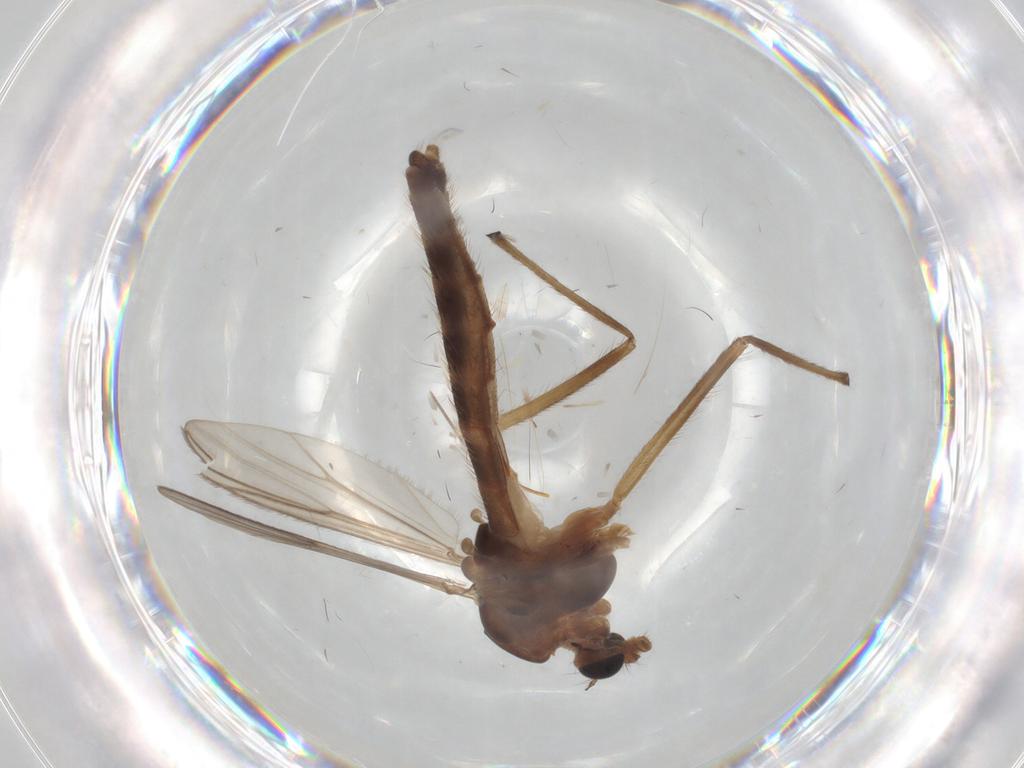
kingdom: Animalia
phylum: Arthropoda
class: Insecta
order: Diptera
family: Chironomidae
